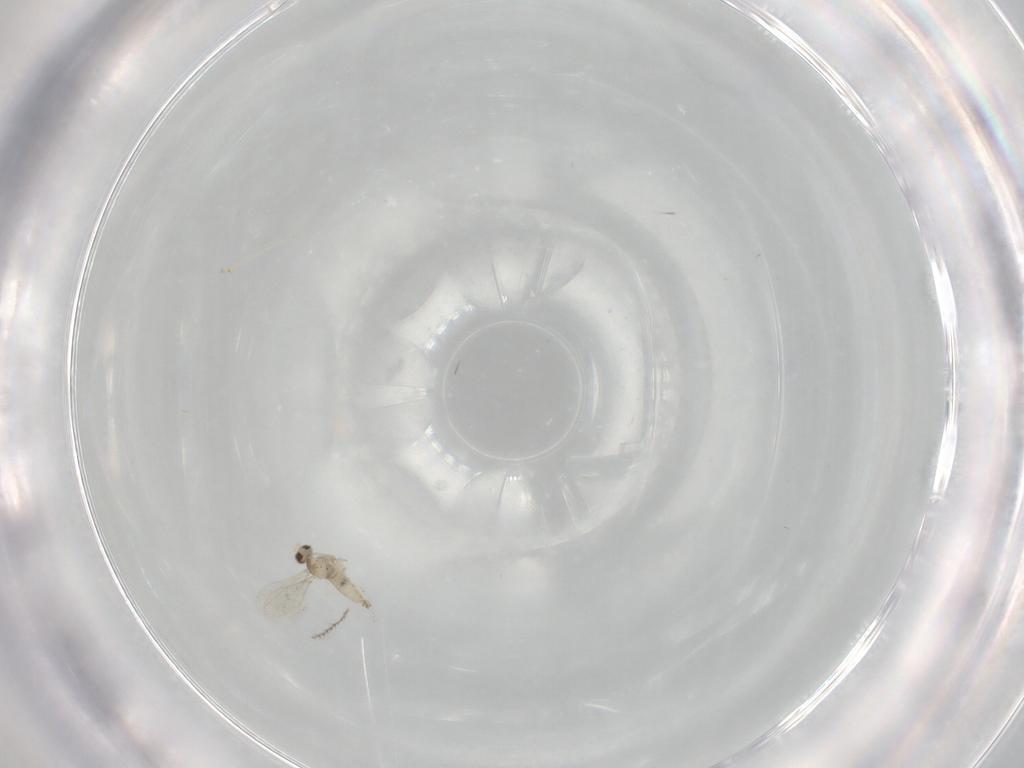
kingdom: Animalia
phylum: Arthropoda
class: Insecta
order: Diptera
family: Cecidomyiidae
